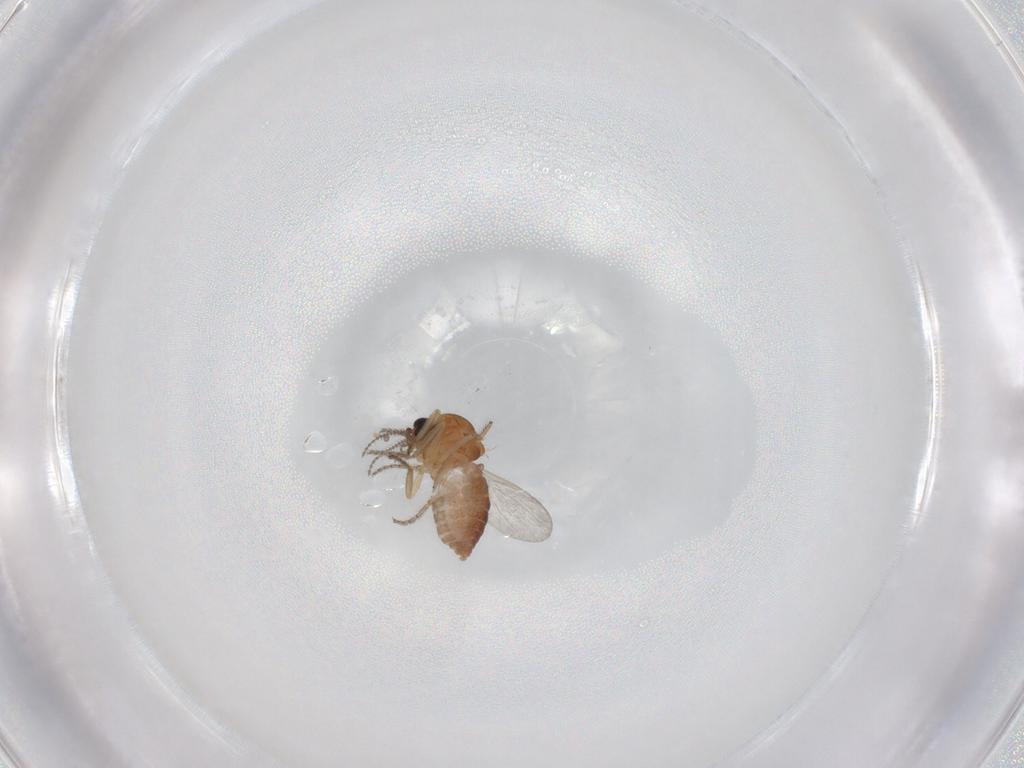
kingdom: Animalia
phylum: Arthropoda
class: Insecta
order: Diptera
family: Ceratopogonidae
